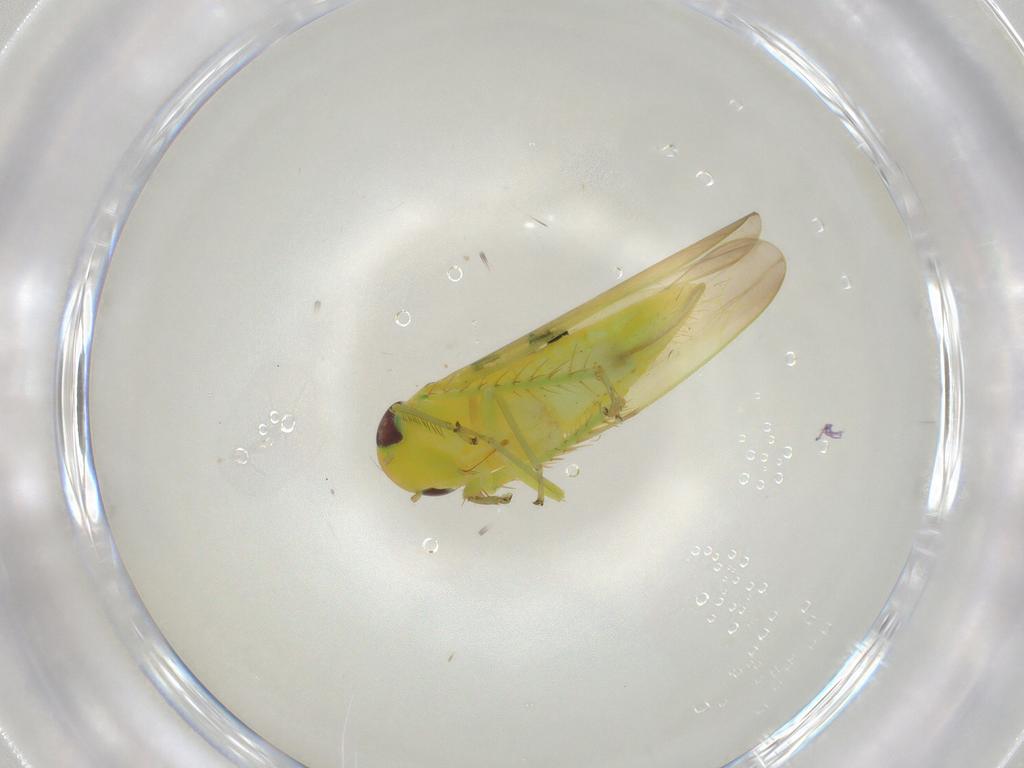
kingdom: Animalia
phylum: Arthropoda
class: Insecta
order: Hemiptera
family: Cicadellidae
